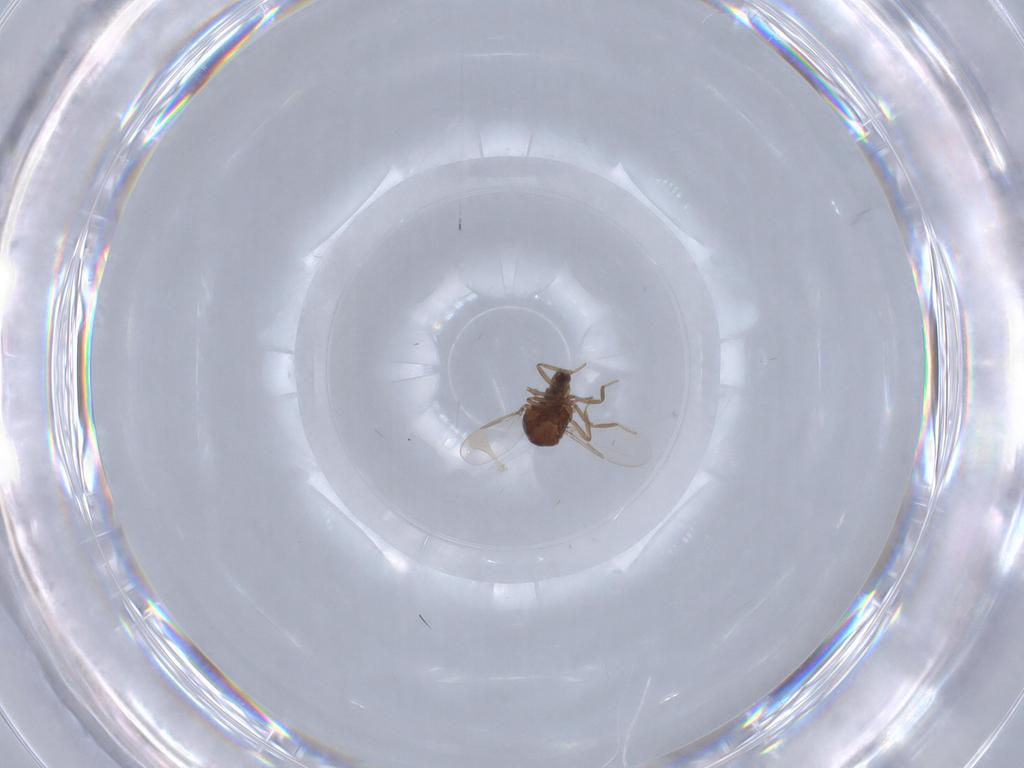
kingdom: Animalia
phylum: Arthropoda
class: Insecta
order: Diptera
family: Ceratopogonidae
